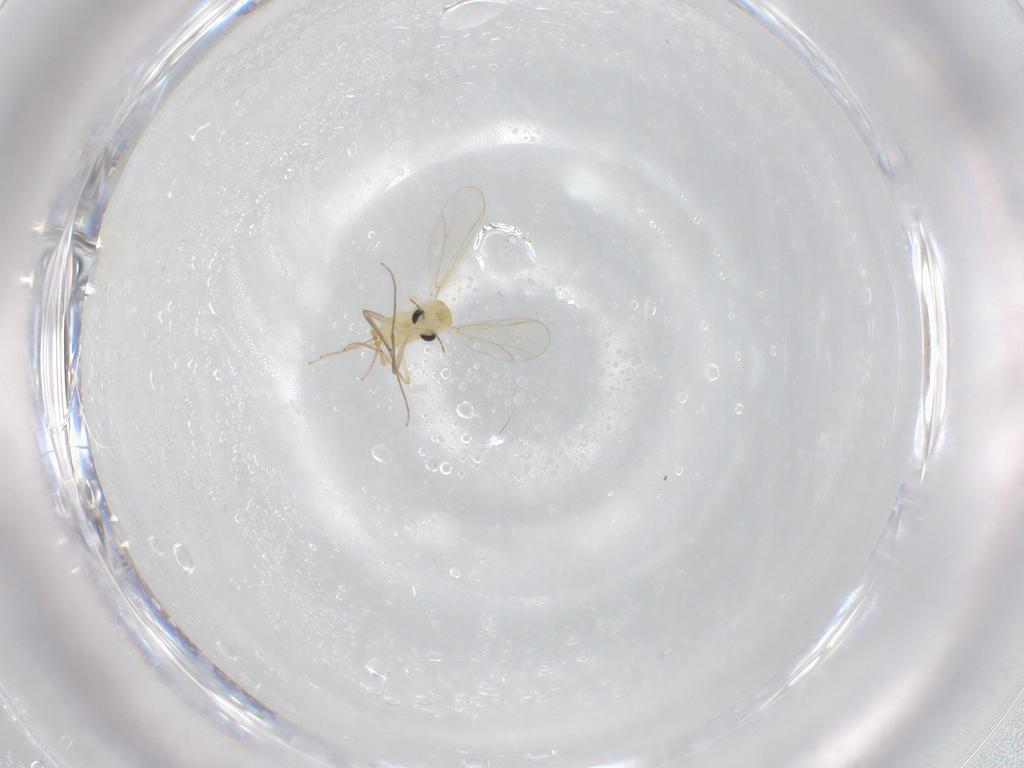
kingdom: Animalia
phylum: Arthropoda
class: Insecta
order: Diptera
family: Chironomidae
